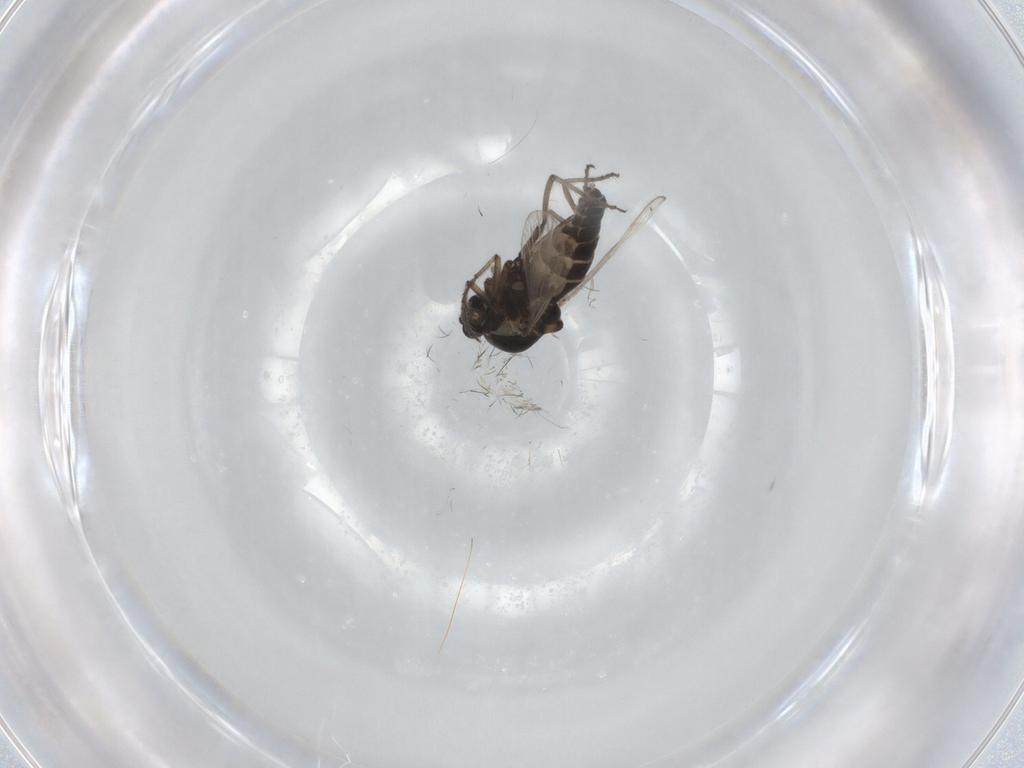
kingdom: Animalia
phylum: Arthropoda
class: Insecta
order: Diptera
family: Ceratopogonidae
